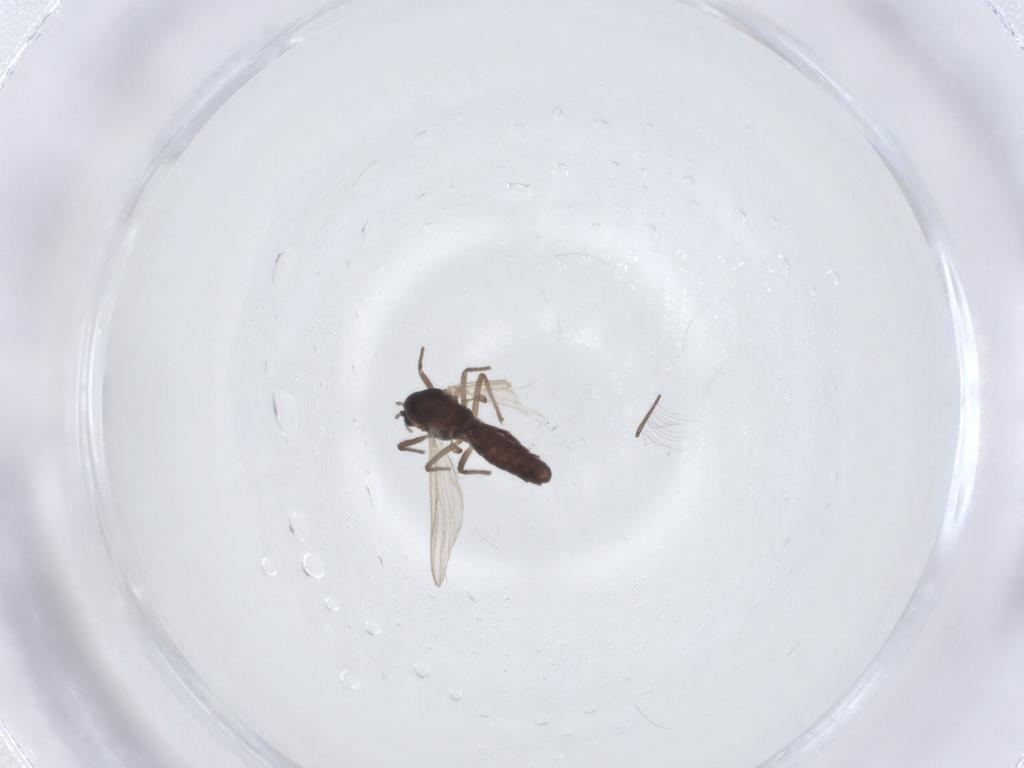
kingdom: Animalia
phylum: Arthropoda
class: Insecta
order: Diptera
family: Chironomidae
